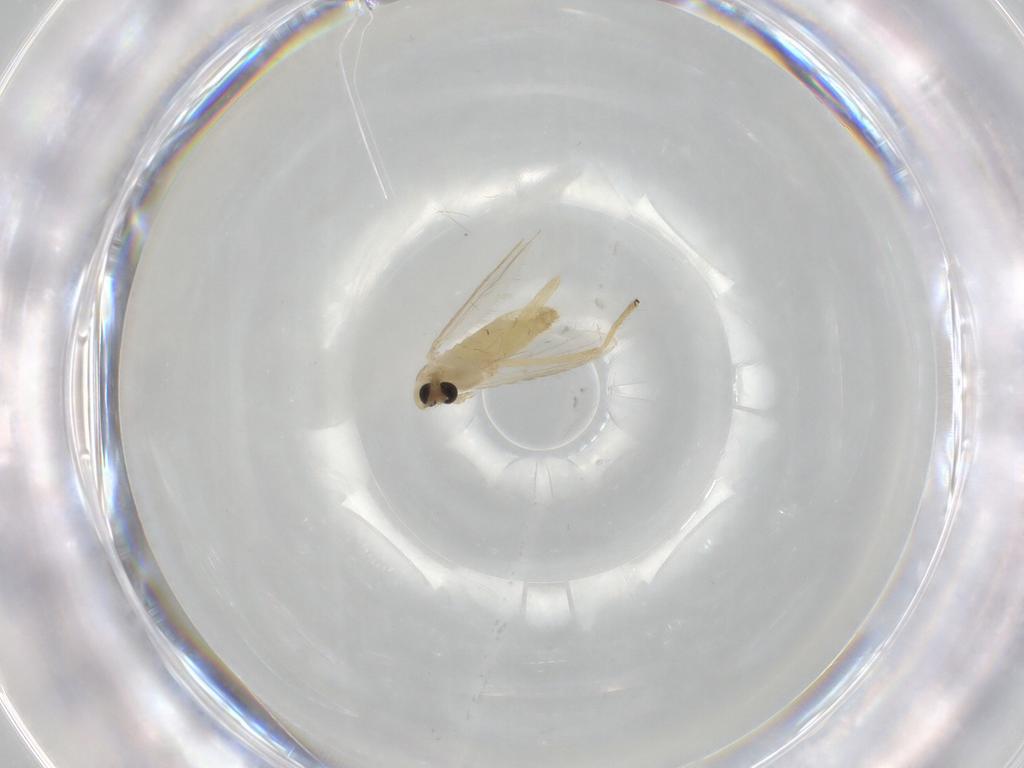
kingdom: Animalia
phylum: Arthropoda
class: Insecta
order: Diptera
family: Chironomidae
